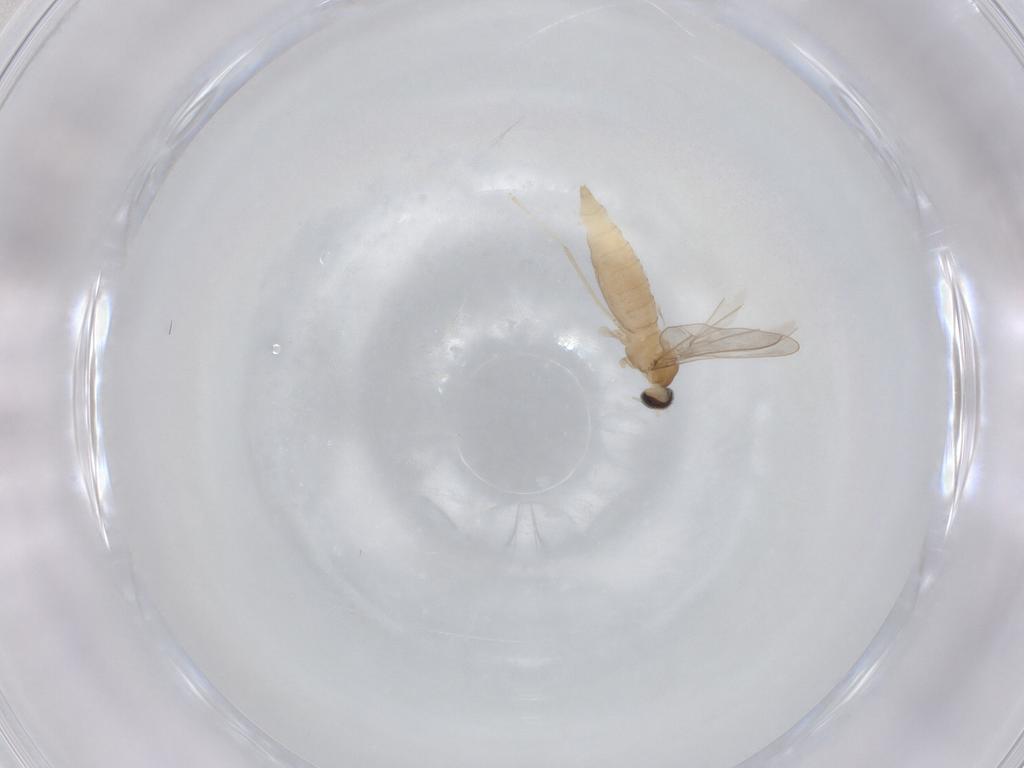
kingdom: Animalia
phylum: Arthropoda
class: Insecta
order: Diptera
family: Lauxaniidae
